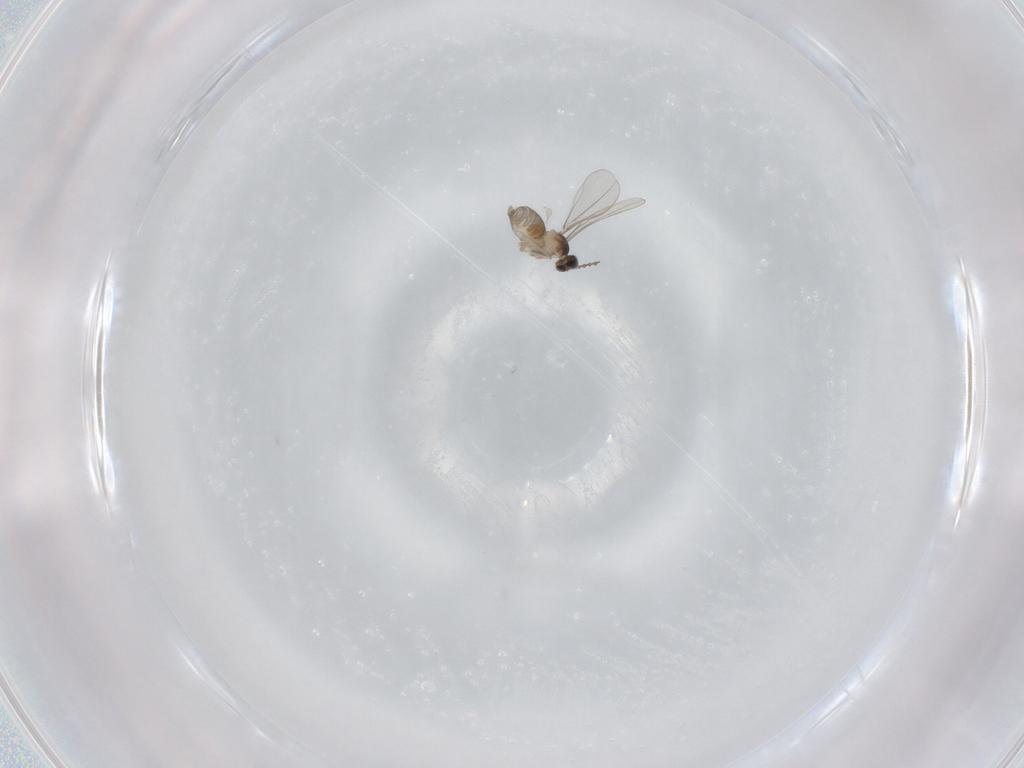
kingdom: Animalia
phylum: Arthropoda
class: Insecta
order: Diptera
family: Cecidomyiidae
